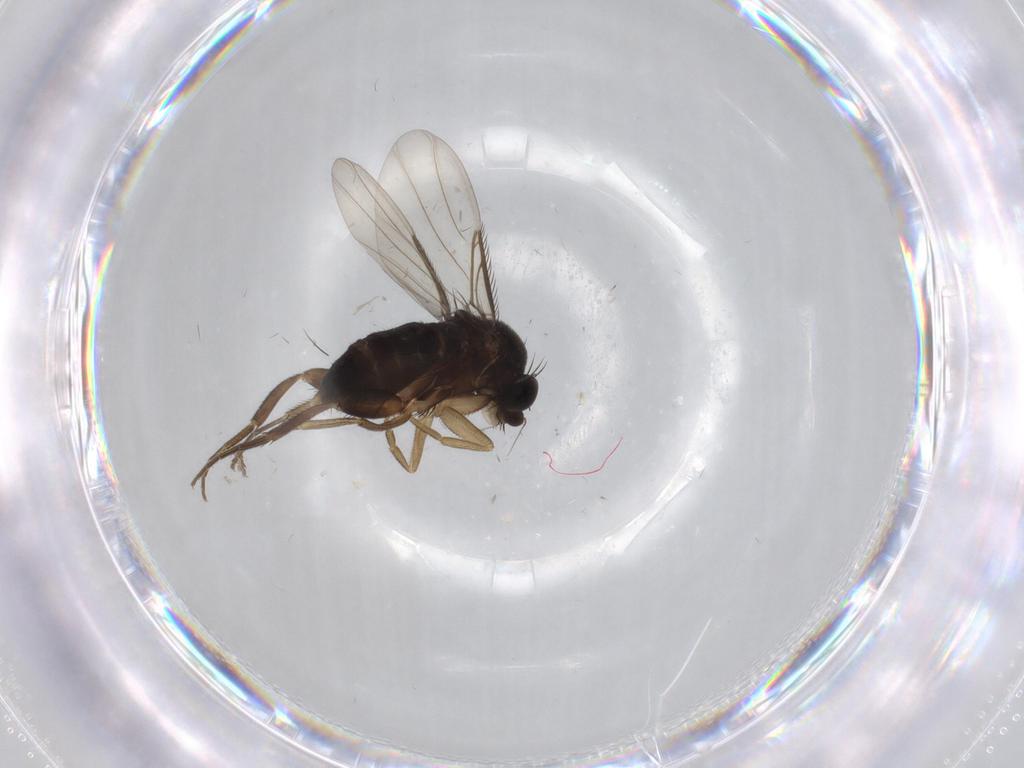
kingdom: Animalia
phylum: Arthropoda
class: Insecta
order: Diptera
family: Phoridae
